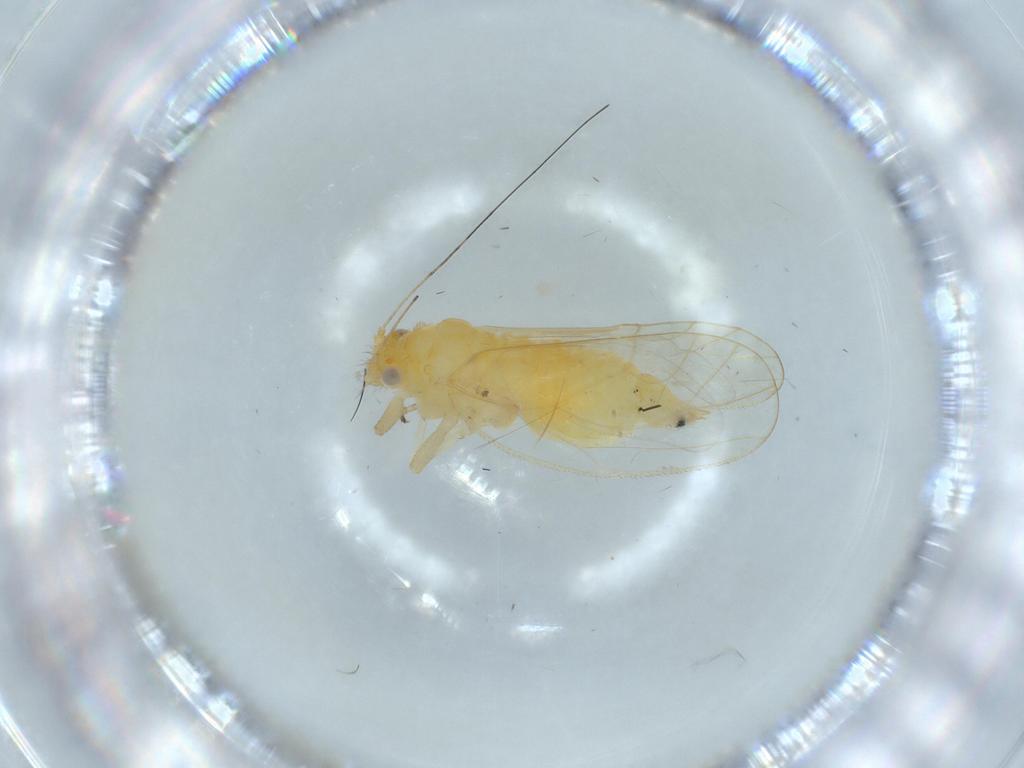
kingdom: Animalia
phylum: Arthropoda
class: Insecta
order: Hemiptera
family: Psyllidae
